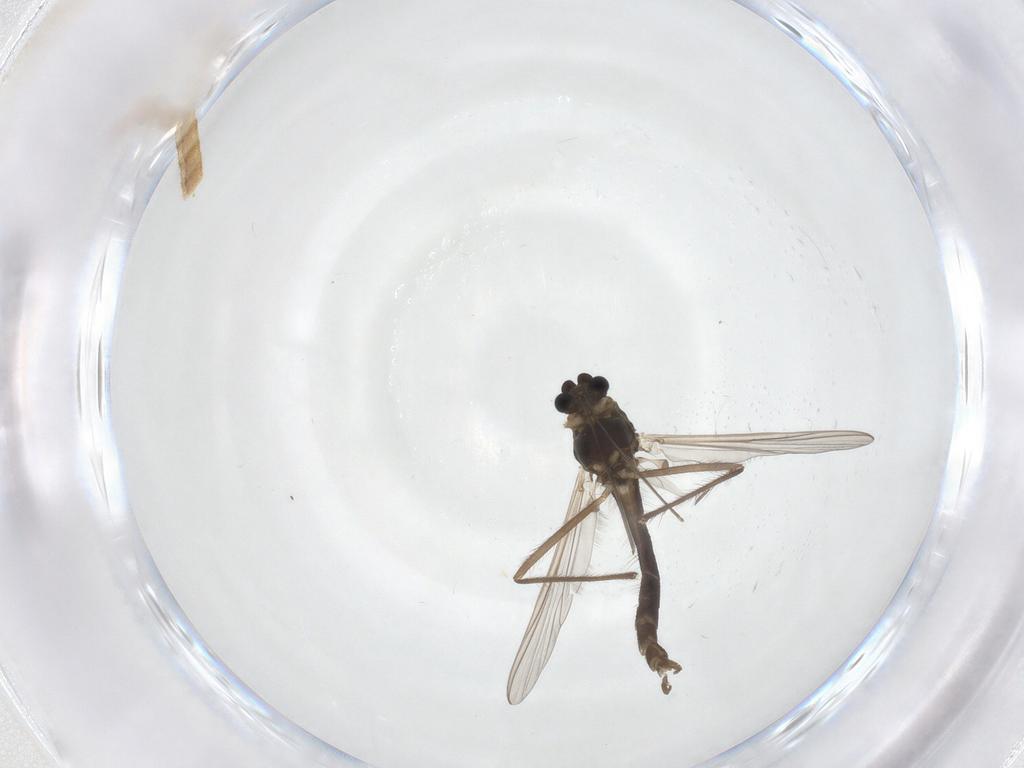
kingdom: Animalia
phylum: Arthropoda
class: Insecta
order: Diptera
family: Chironomidae
